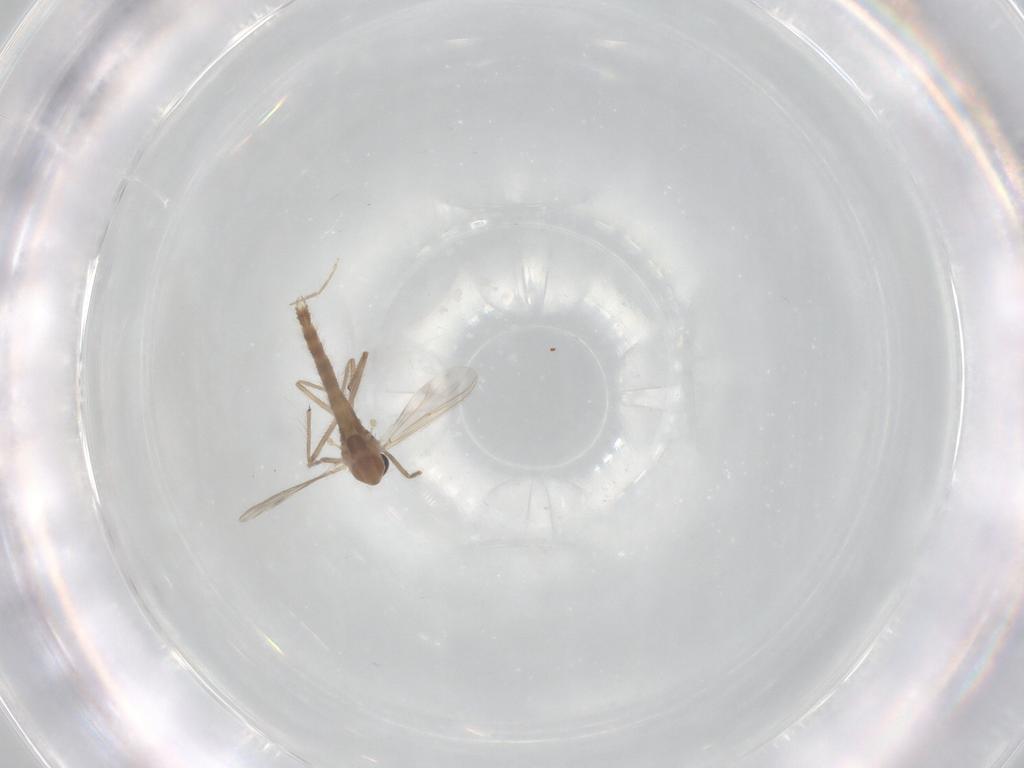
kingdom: Animalia
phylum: Arthropoda
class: Insecta
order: Diptera
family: Chironomidae
